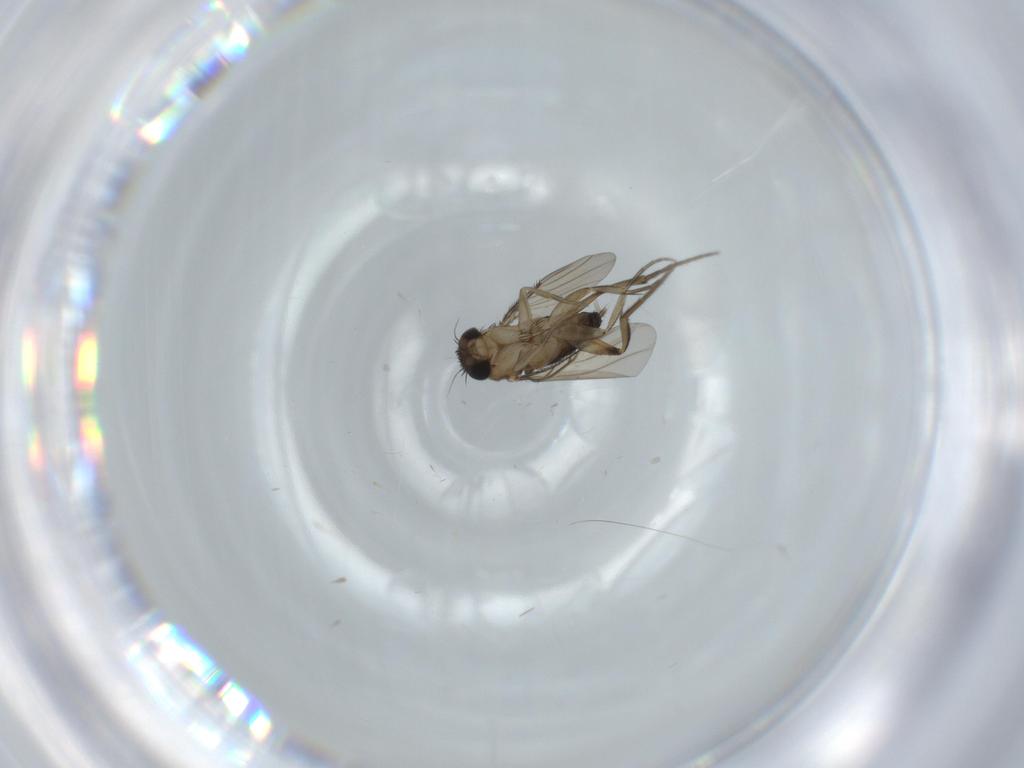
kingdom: Animalia
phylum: Arthropoda
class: Insecta
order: Diptera
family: Phoridae
